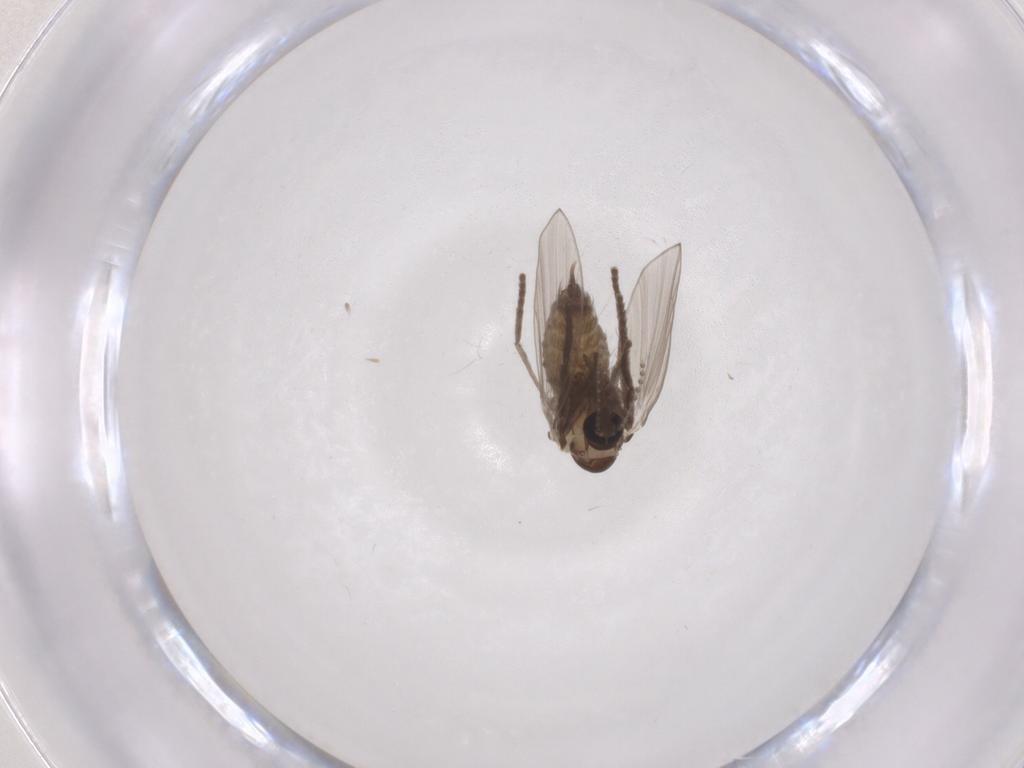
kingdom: Animalia
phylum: Arthropoda
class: Insecta
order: Diptera
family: Psychodidae
